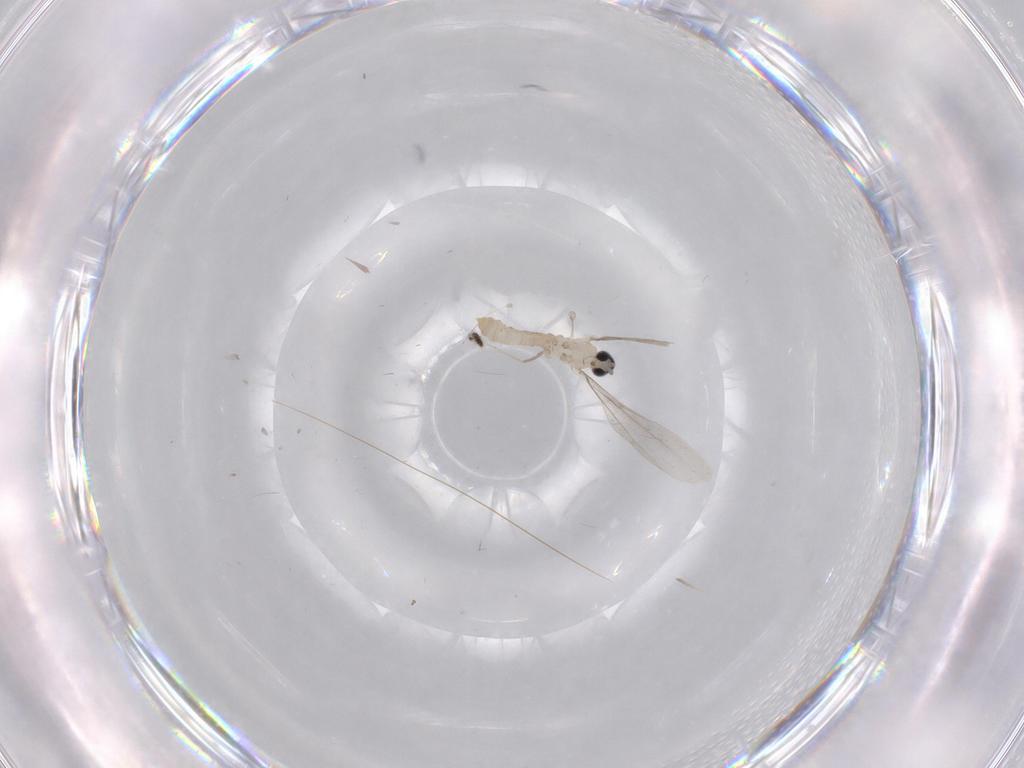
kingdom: Animalia
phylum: Arthropoda
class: Insecta
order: Diptera
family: Cecidomyiidae
